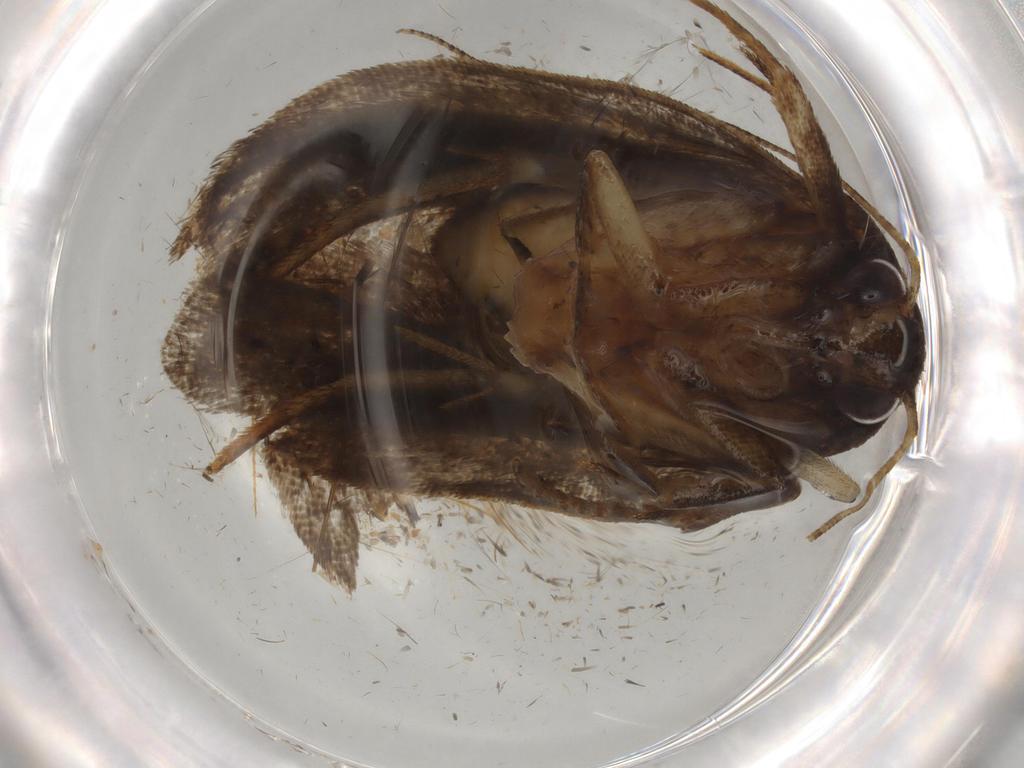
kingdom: Animalia
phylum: Arthropoda
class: Insecta
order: Lepidoptera
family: Gelechiidae
